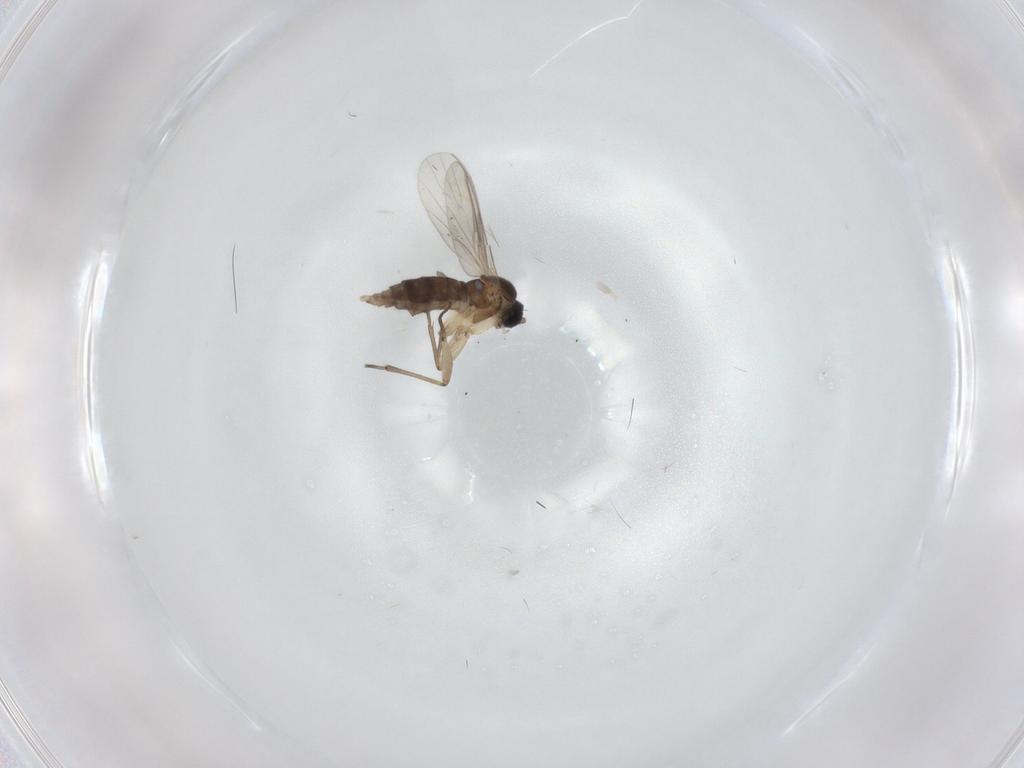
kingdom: Animalia
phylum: Arthropoda
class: Insecta
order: Diptera
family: Sciaridae
